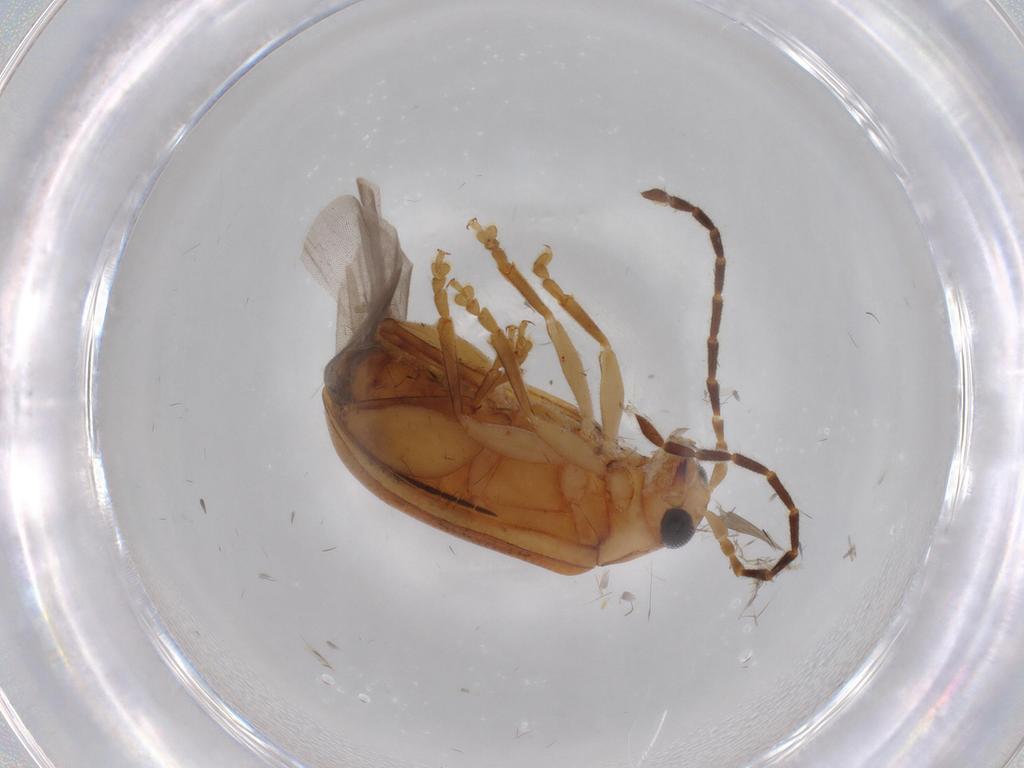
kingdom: Animalia
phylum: Arthropoda
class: Insecta
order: Coleoptera
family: Chrysomelidae
